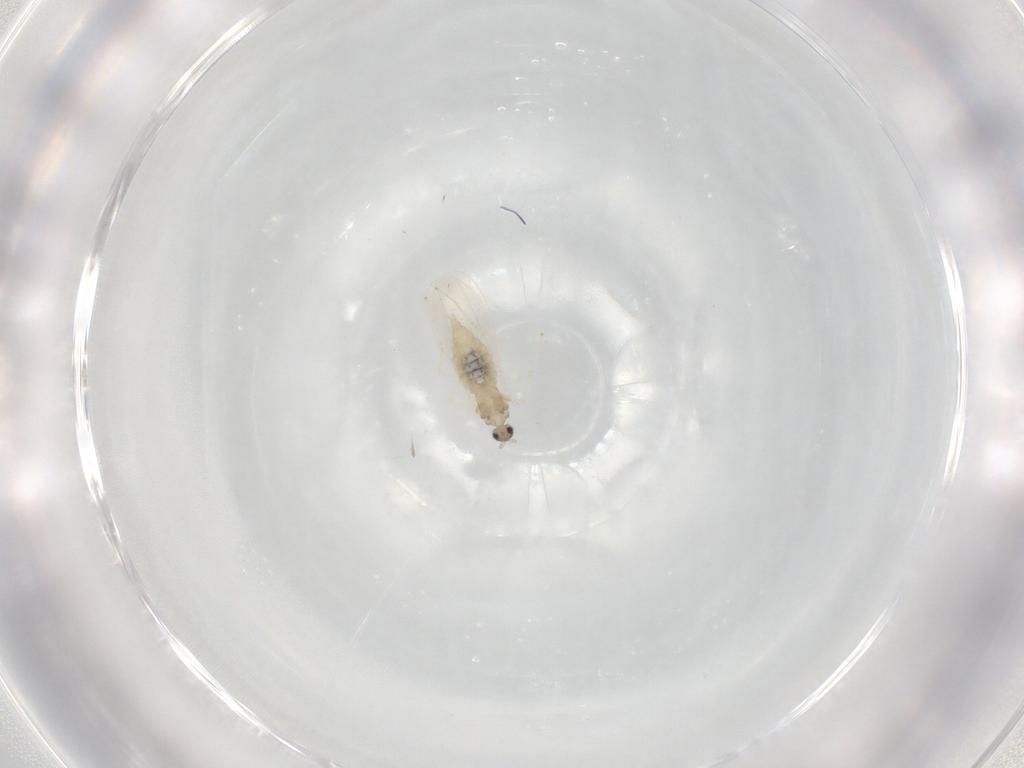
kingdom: Animalia
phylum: Arthropoda
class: Insecta
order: Diptera
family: Chironomidae
